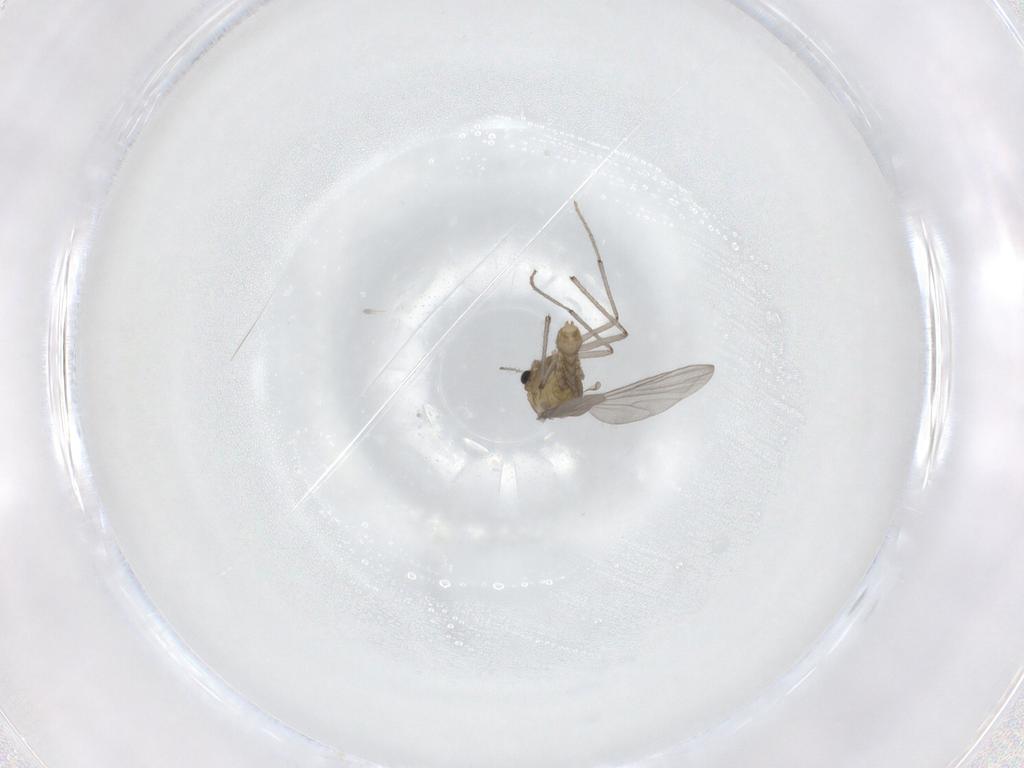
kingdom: Animalia
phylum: Arthropoda
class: Insecta
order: Diptera
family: Chironomidae
